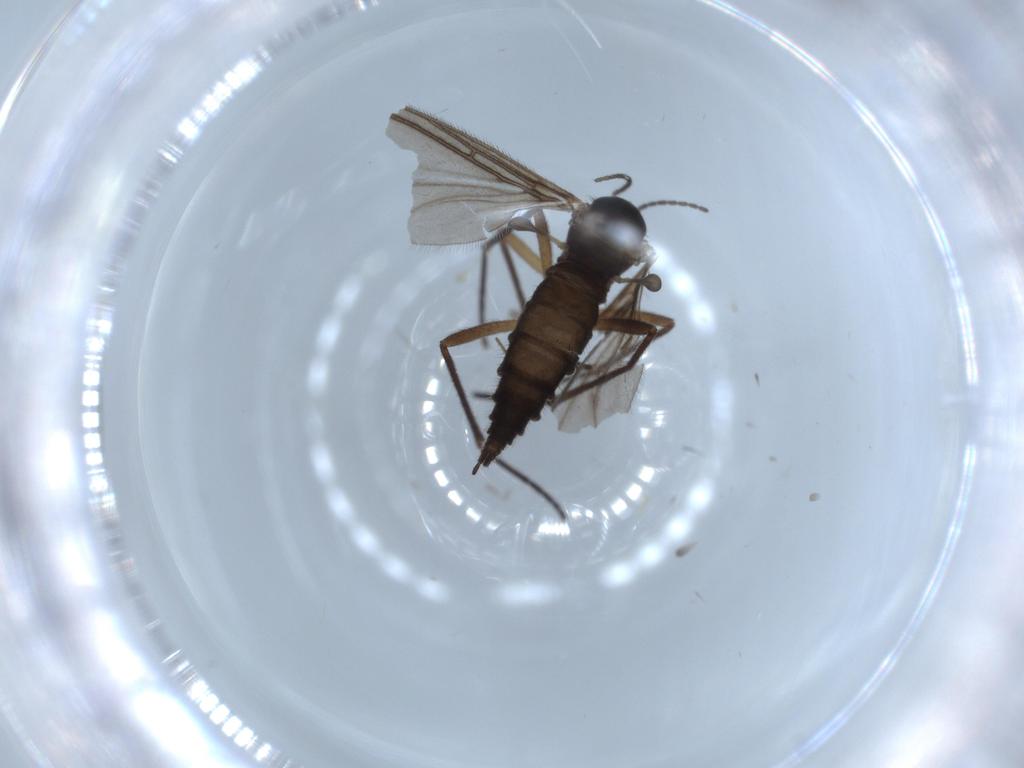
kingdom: Animalia
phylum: Arthropoda
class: Insecta
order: Diptera
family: Sciaridae
